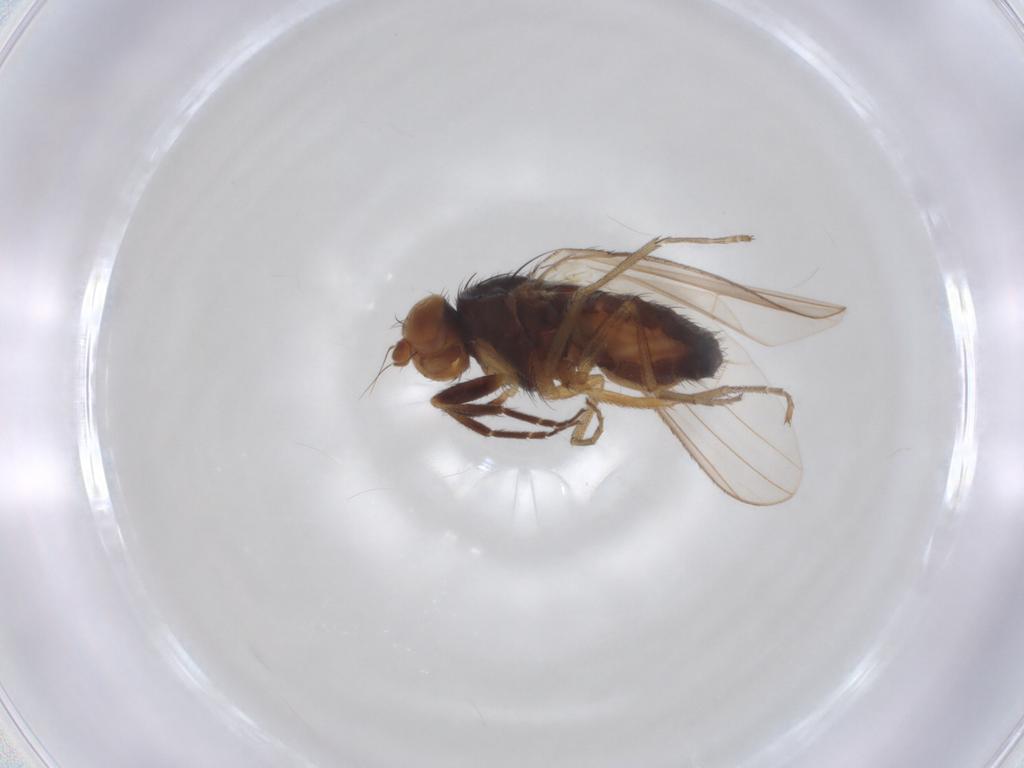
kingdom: Animalia
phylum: Arthropoda
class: Insecta
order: Diptera
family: Heleomyzidae
